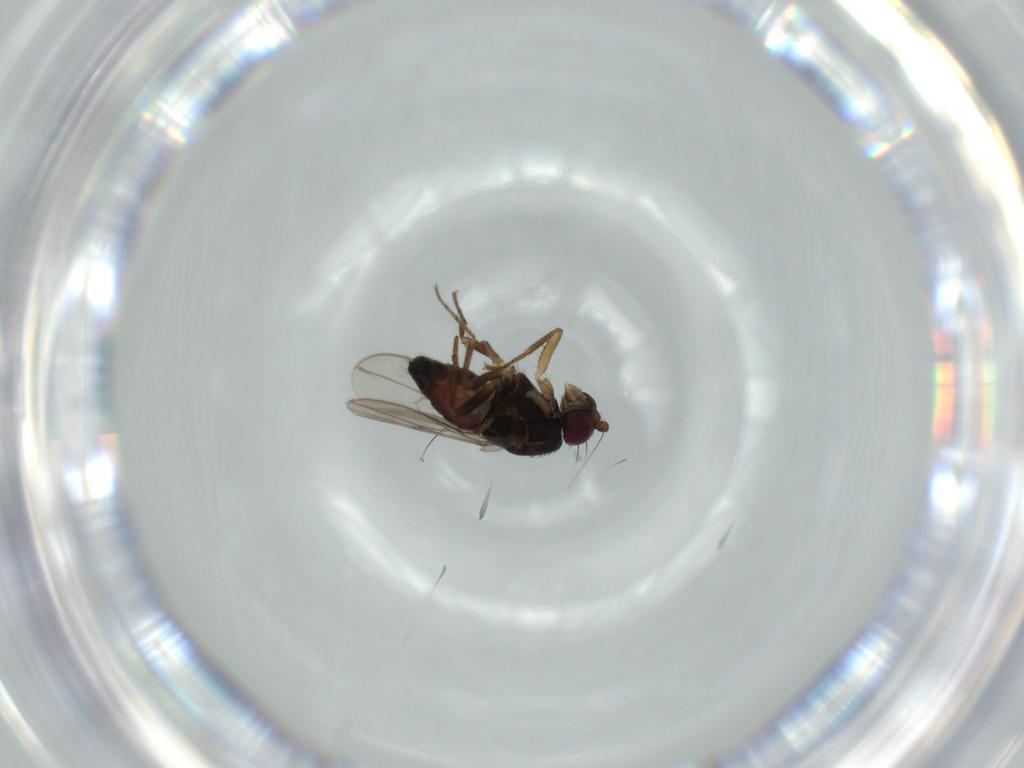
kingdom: Animalia
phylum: Arthropoda
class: Insecta
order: Diptera
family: Sphaeroceridae
